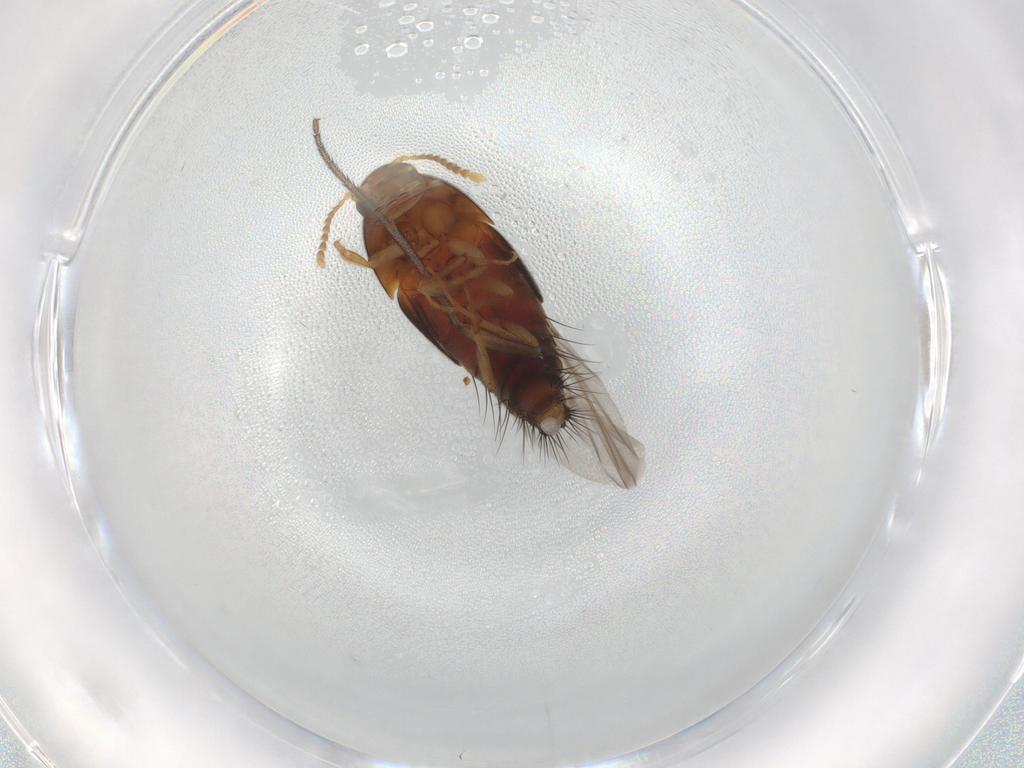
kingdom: Animalia
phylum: Arthropoda
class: Insecta
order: Coleoptera
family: Staphylinidae
